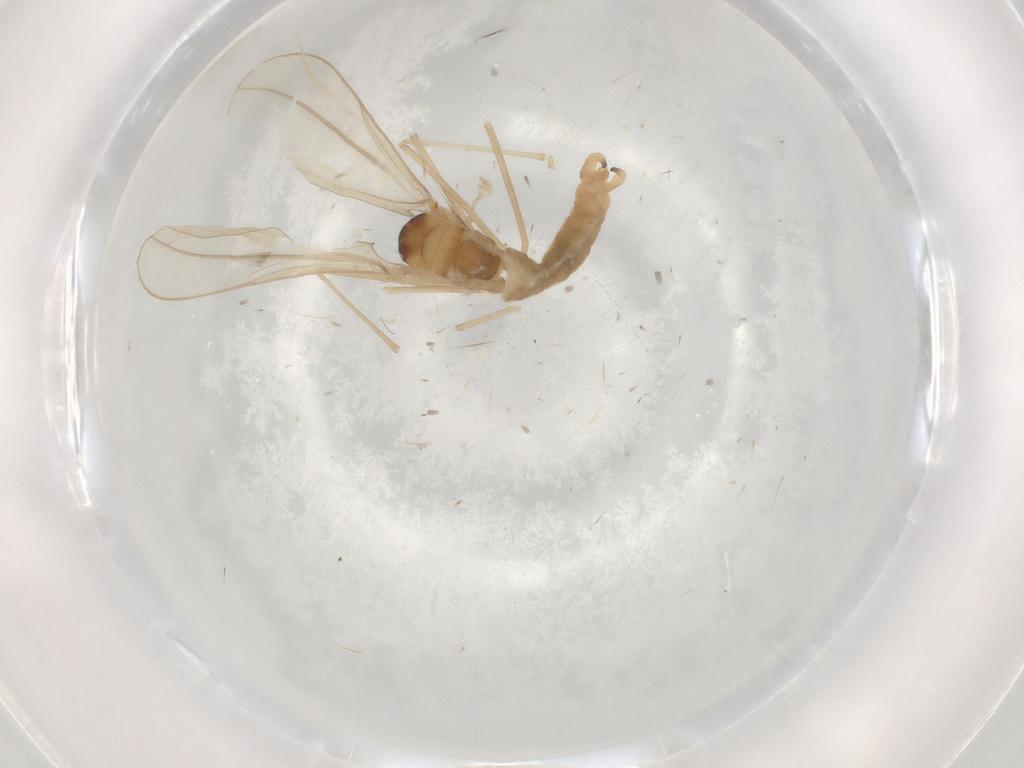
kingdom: Animalia
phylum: Arthropoda
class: Insecta
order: Diptera
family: Cecidomyiidae
